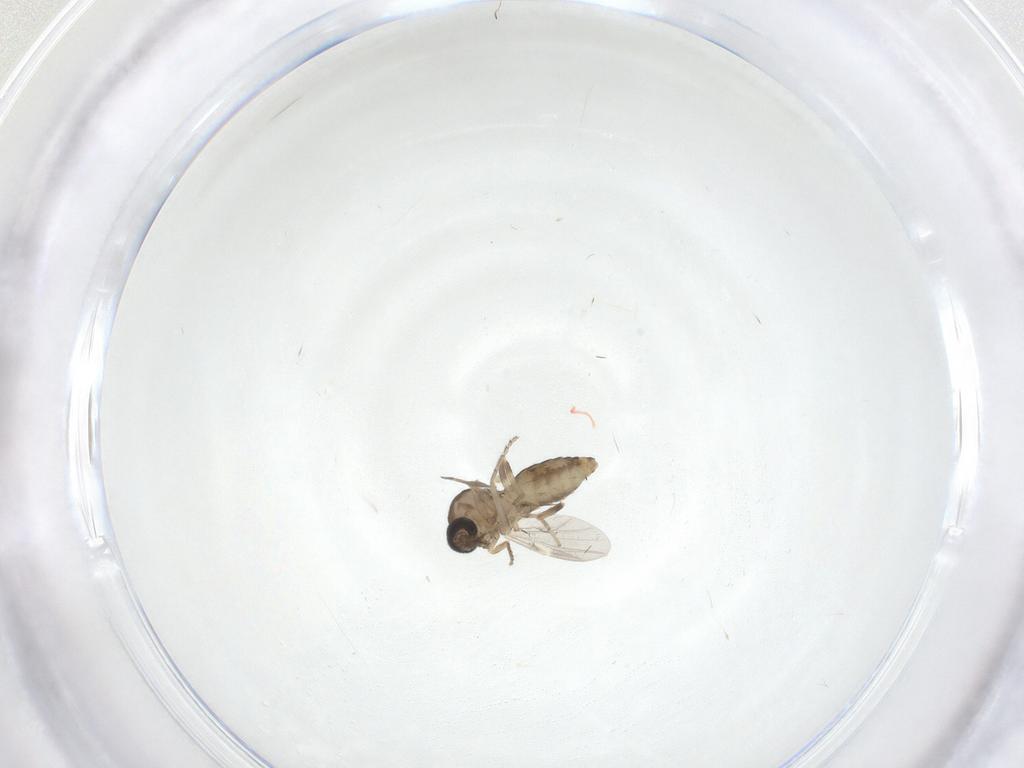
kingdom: Animalia
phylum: Arthropoda
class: Insecta
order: Diptera
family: Ceratopogonidae
